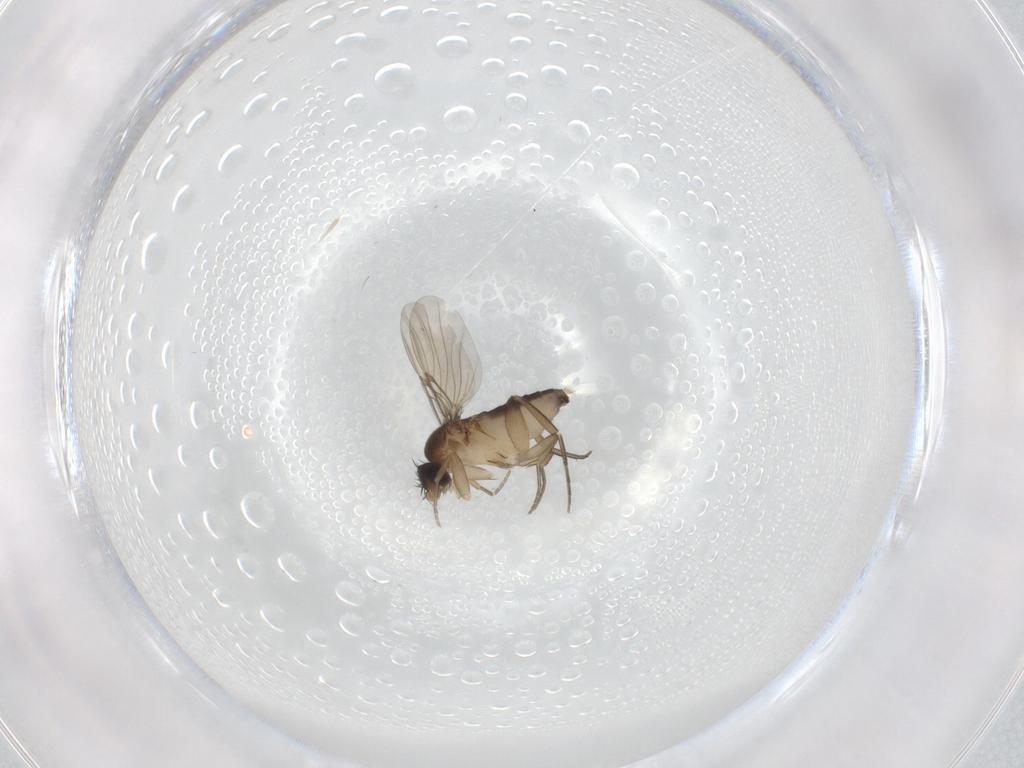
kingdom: Animalia
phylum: Arthropoda
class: Insecta
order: Diptera
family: Phoridae
